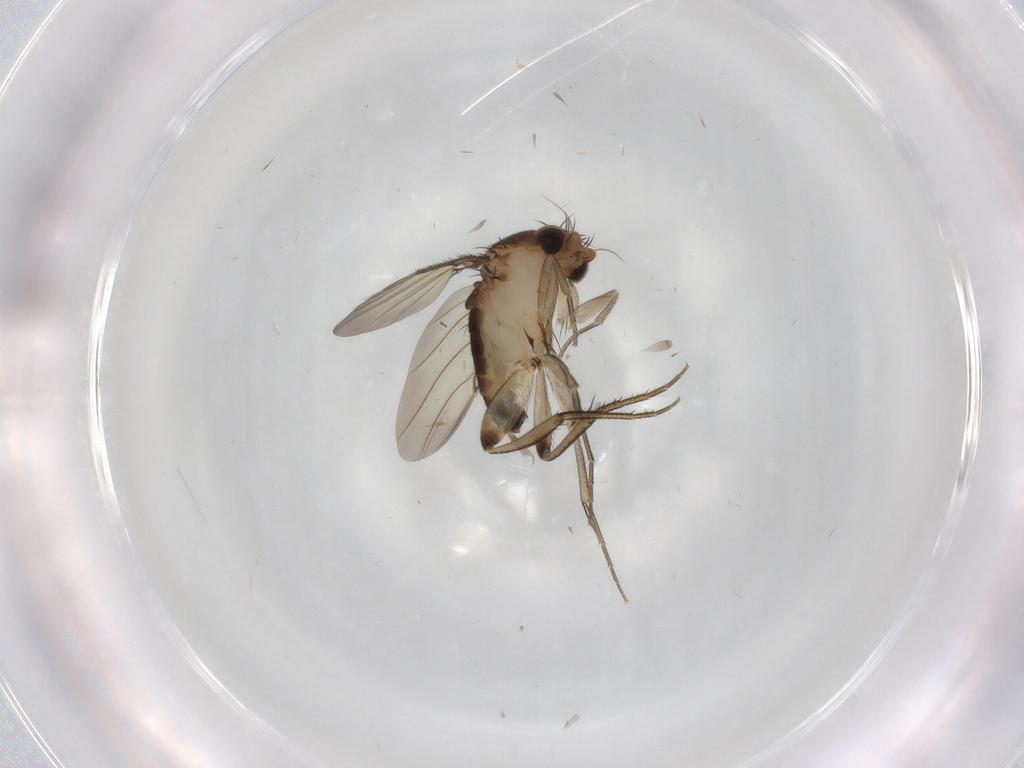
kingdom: Animalia
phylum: Arthropoda
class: Insecta
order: Diptera
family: Phoridae
